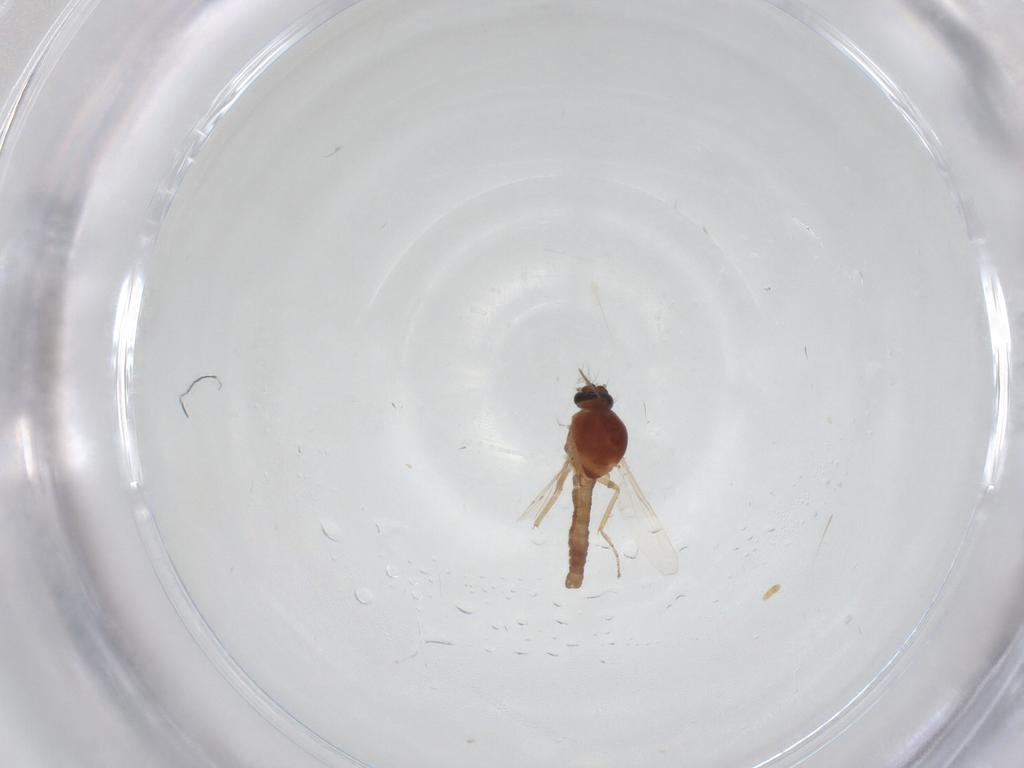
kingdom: Animalia
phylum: Arthropoda
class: Insecta
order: Diptera
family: Ceratopogonidae
